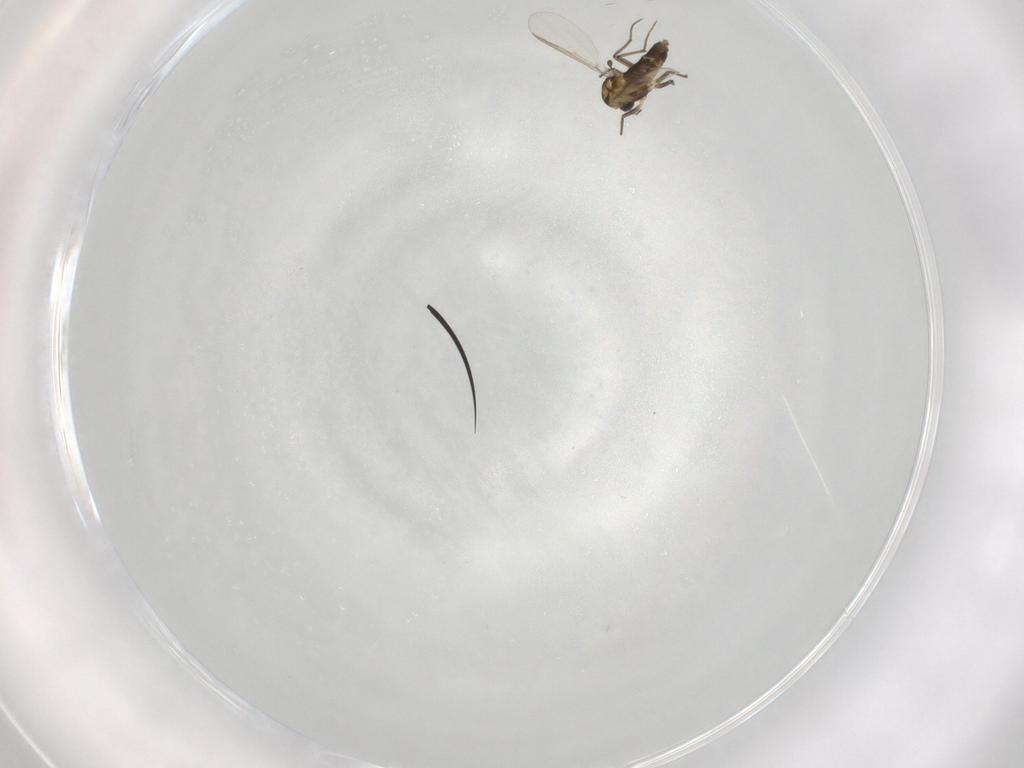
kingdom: Animalia
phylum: Arthropoda
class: Insecta
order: Diptera
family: Chironomidae
